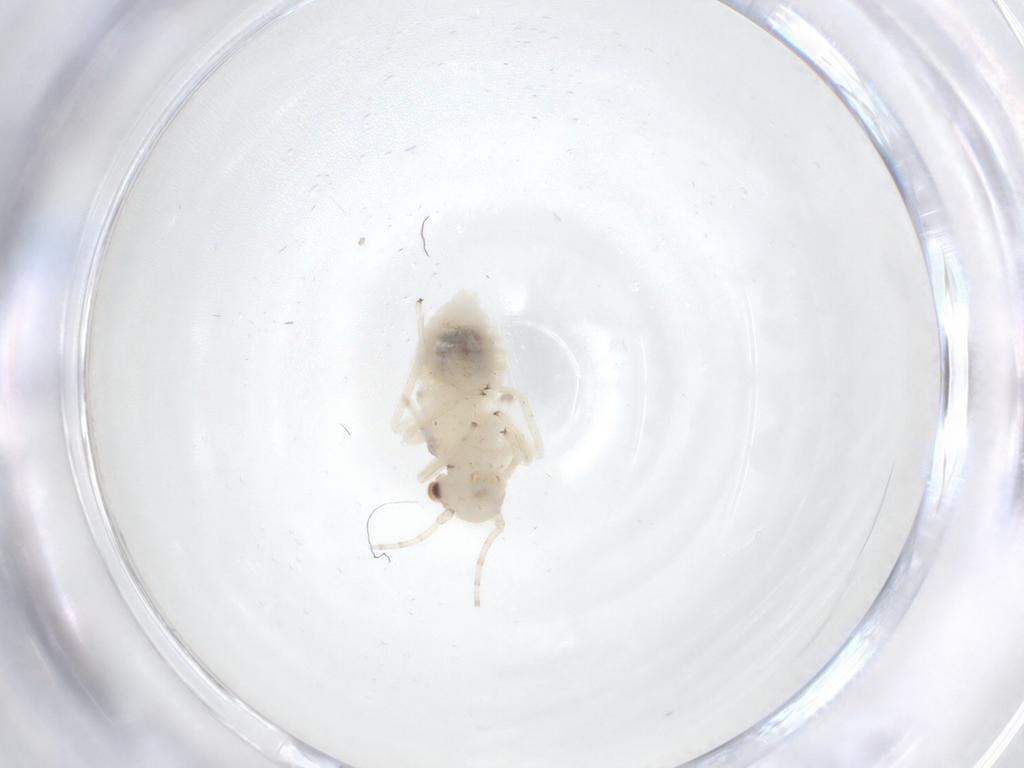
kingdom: Animalia
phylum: Arthropoda
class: Insecta
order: Psocodea
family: Amphipsocidae
